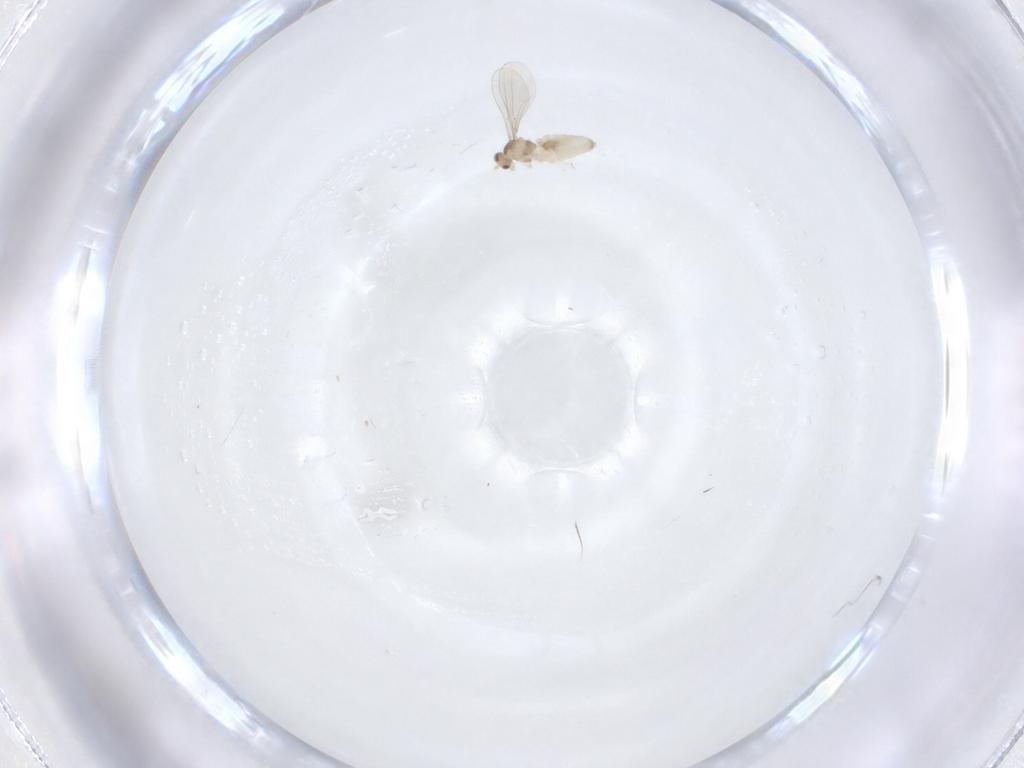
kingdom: Animalia
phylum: Arthropoda
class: Insecta
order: Diptera
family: Cecidomyiidae
